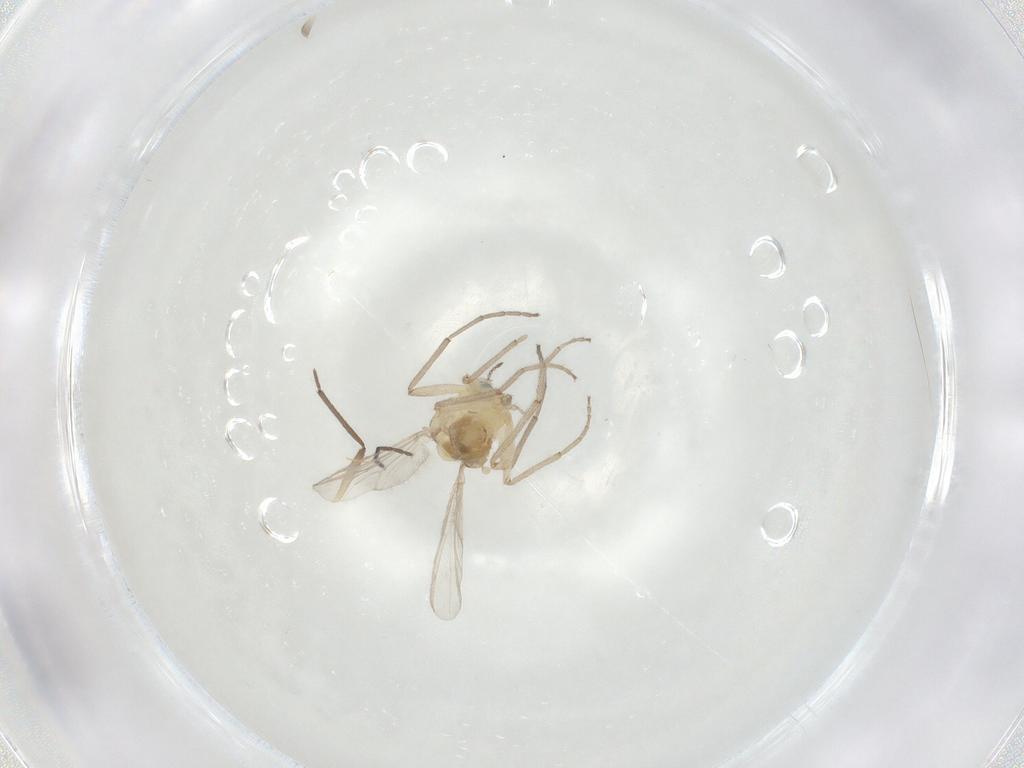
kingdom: Animalia
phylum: Arthropoda
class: Insecta
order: Diptera
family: Chironomidae
